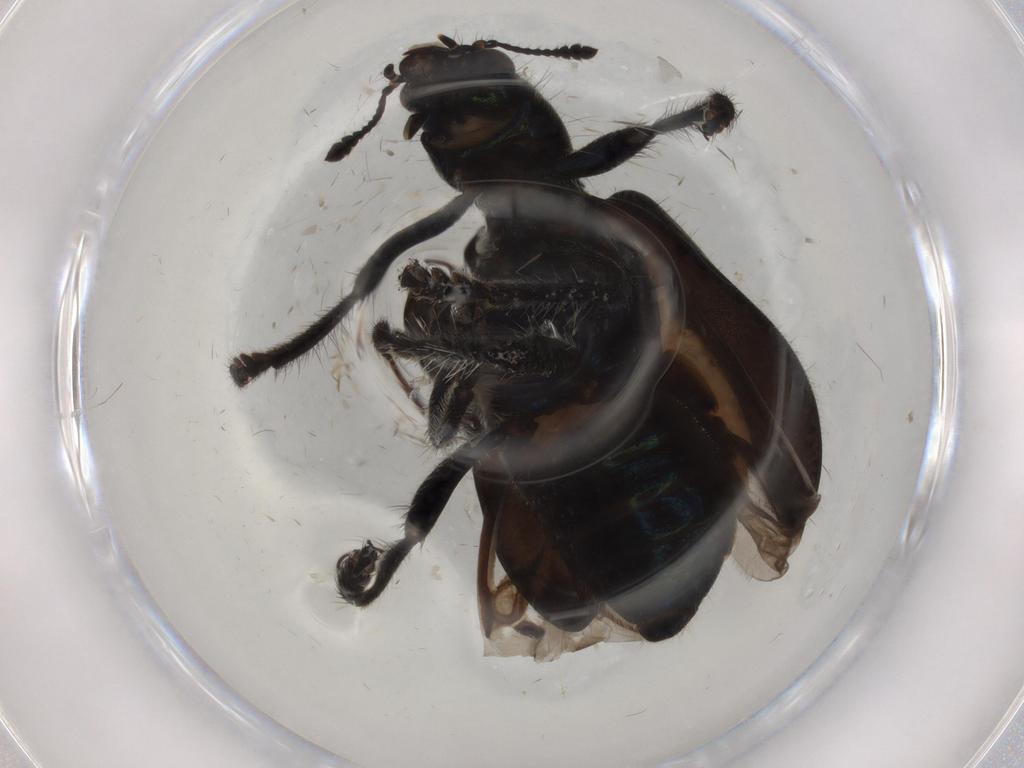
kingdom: Animalia
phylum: Arthropoda
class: Insecta
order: Coleoptera
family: Cleridae
